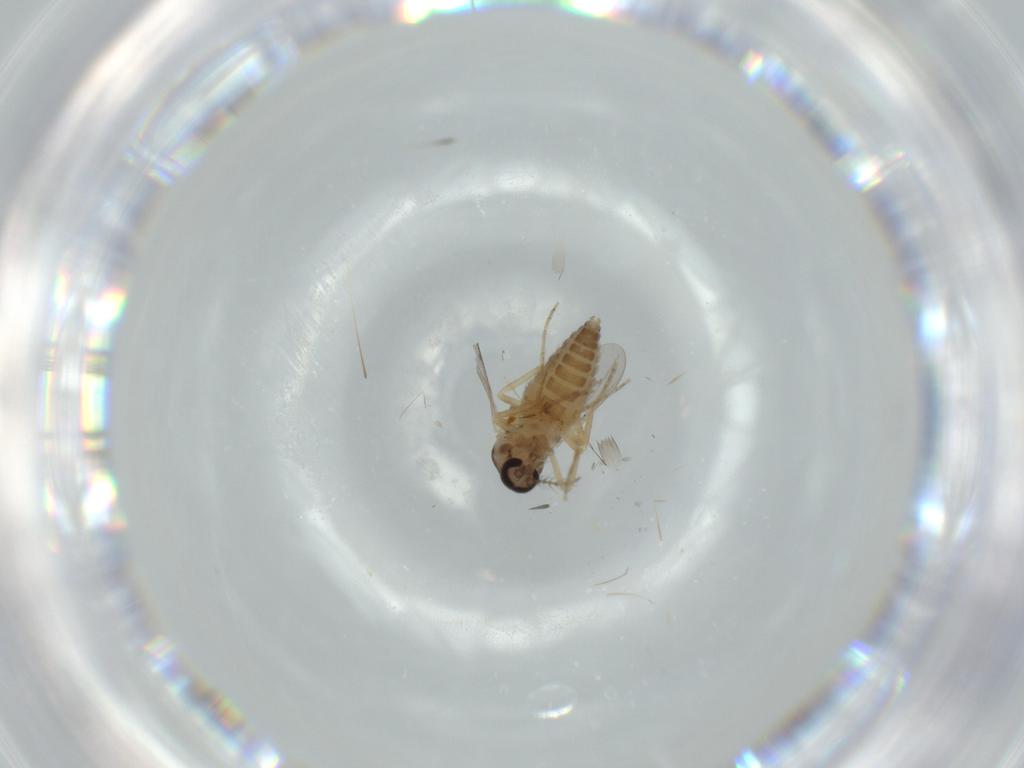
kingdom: Animalia
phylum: Arthropoda
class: Insecta
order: Diptera
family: Ceratopogonidae
